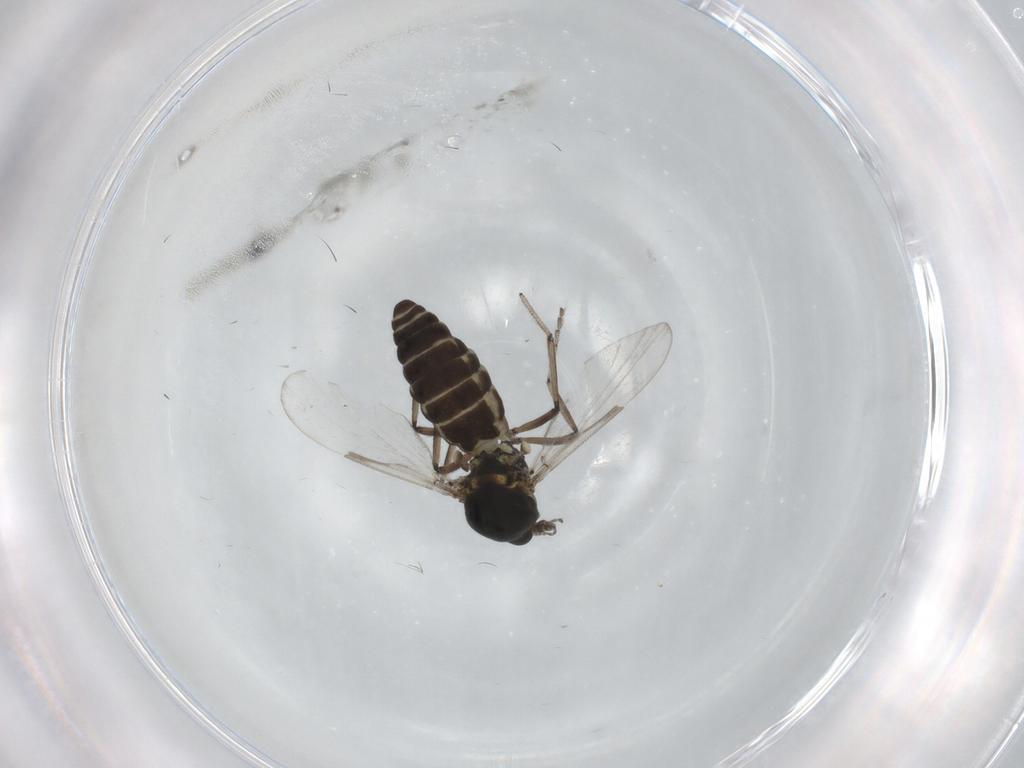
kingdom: Animalia
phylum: Arthropoda
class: Insecta
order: Diptera
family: Ceratopogonidae
